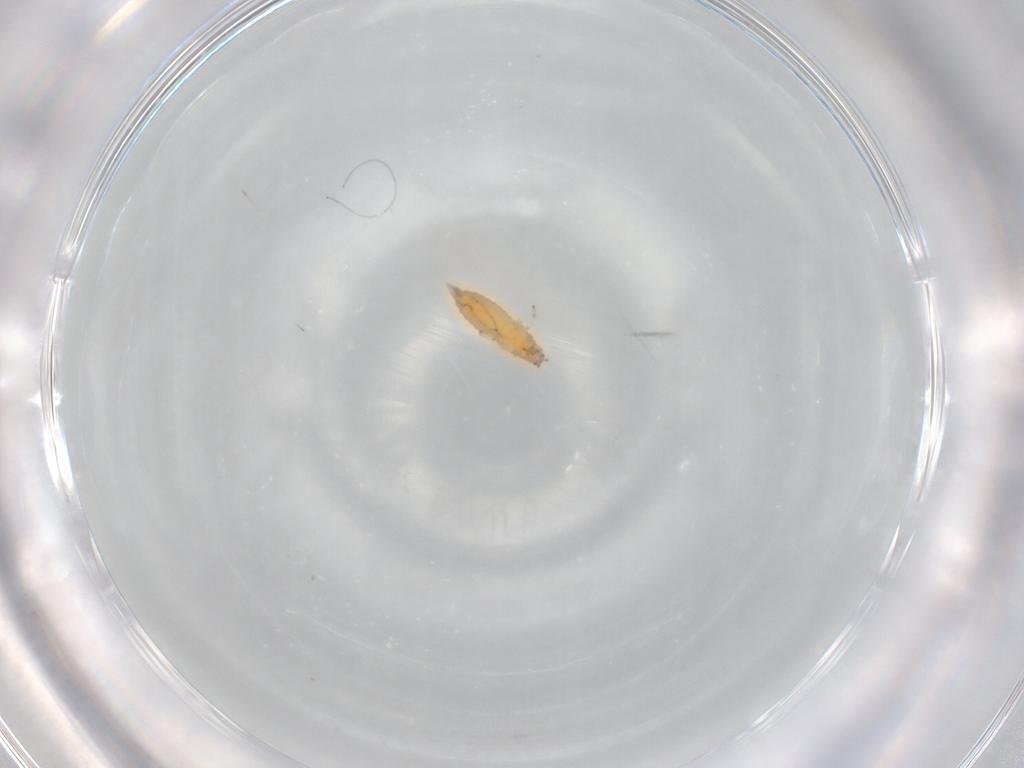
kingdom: Animalia
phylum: Arthropoda
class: Insecta
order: Thysanoptera
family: Aeolothripidae
